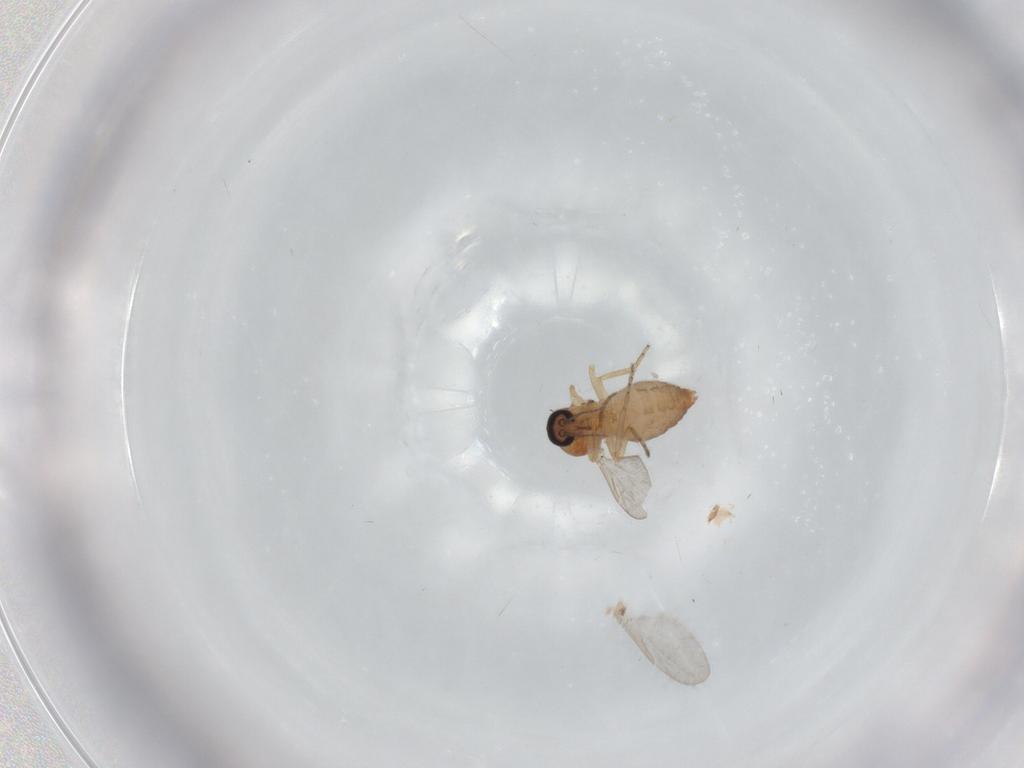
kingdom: Animalia
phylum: Arthropoda
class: Insecta
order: Diptera
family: Ceratopogonidae
